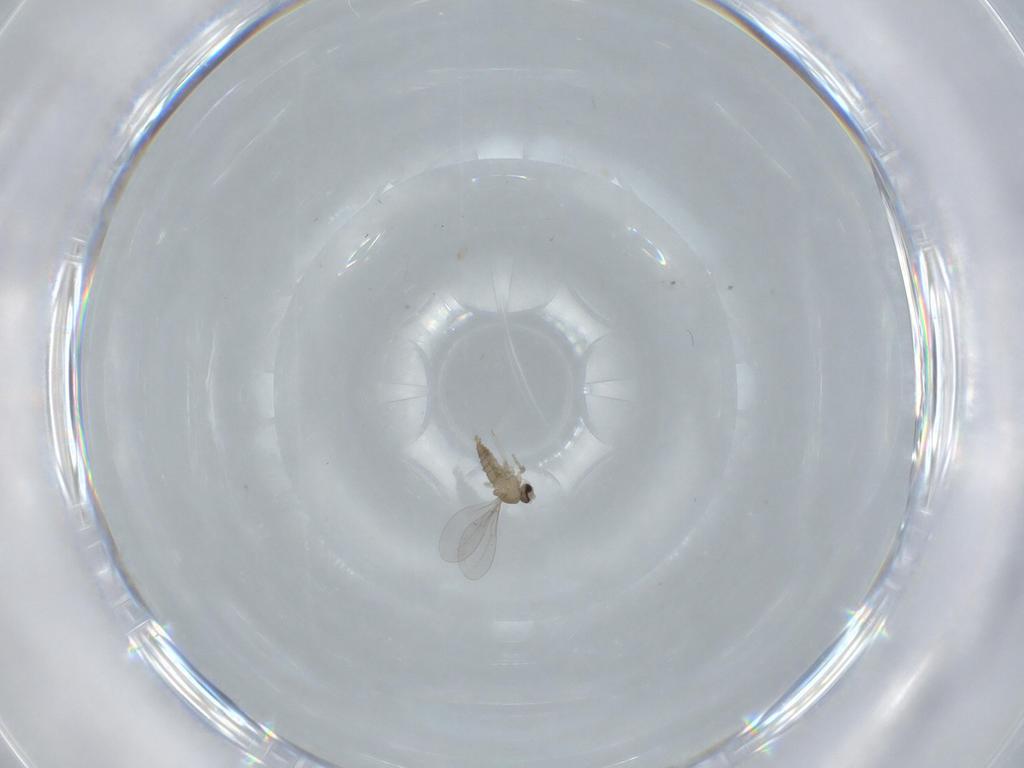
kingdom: Animalia
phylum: Arthropoda
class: Insecta
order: Diptera
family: Cecidomyiidae
